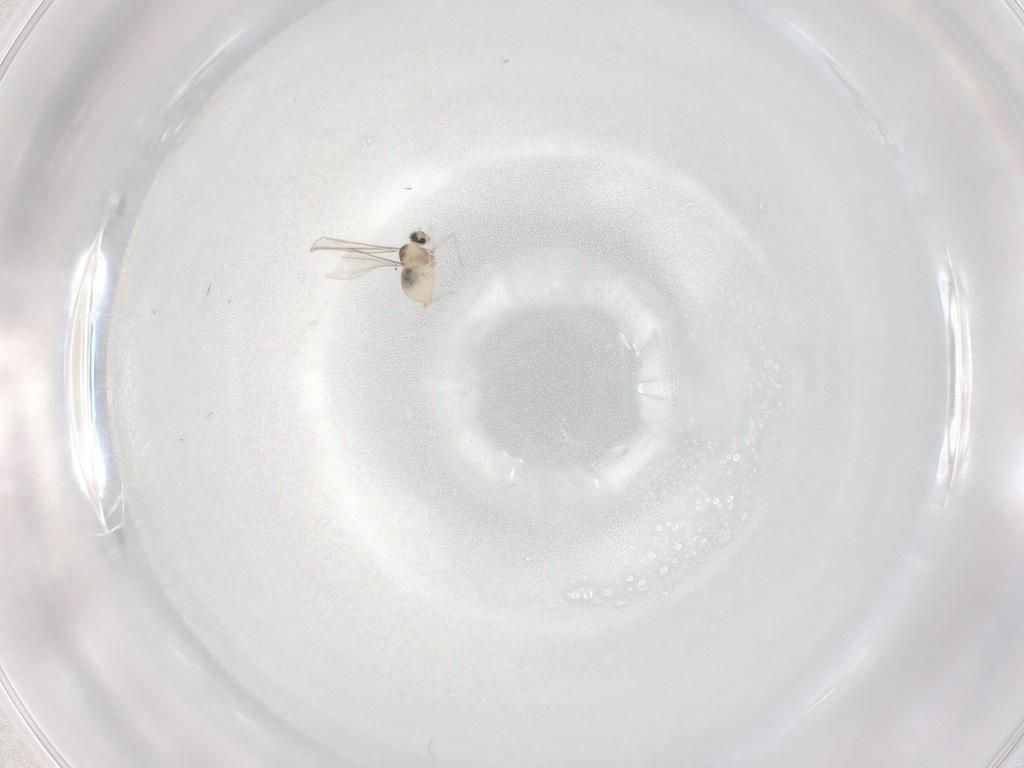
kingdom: Animalia
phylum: Arthropoda
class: Insecta
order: Diptera
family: Cecidomyiidae
